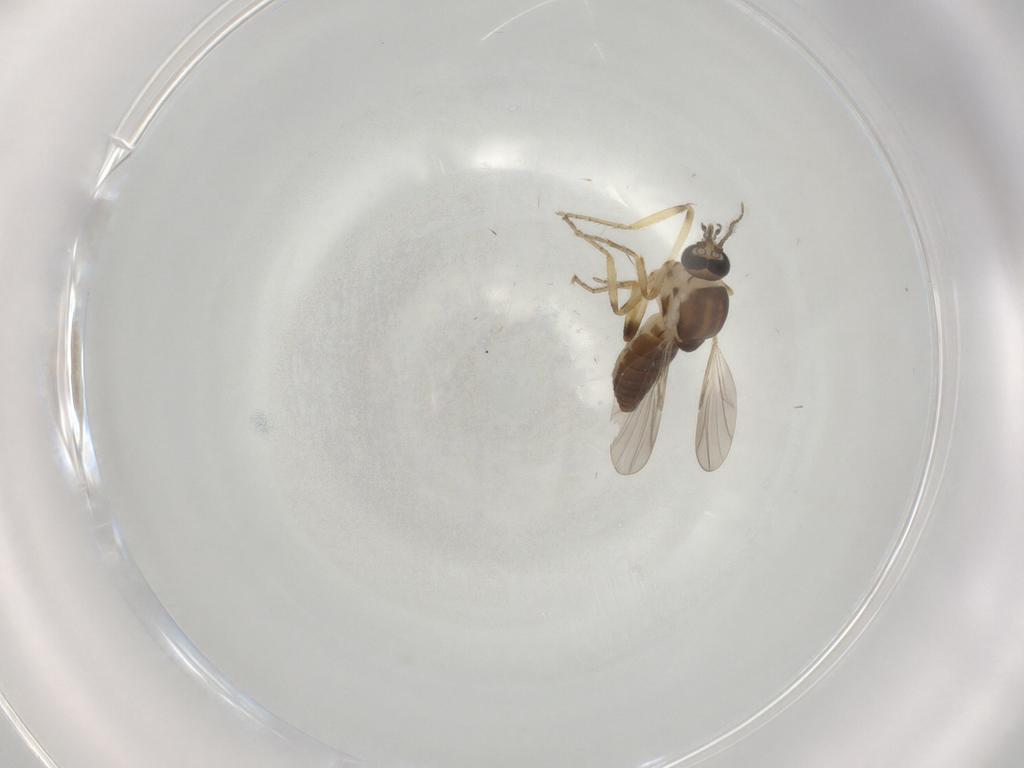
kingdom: Animalia
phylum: Arthropoda
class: Insecta
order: Diptera
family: Ceratopogonidae
